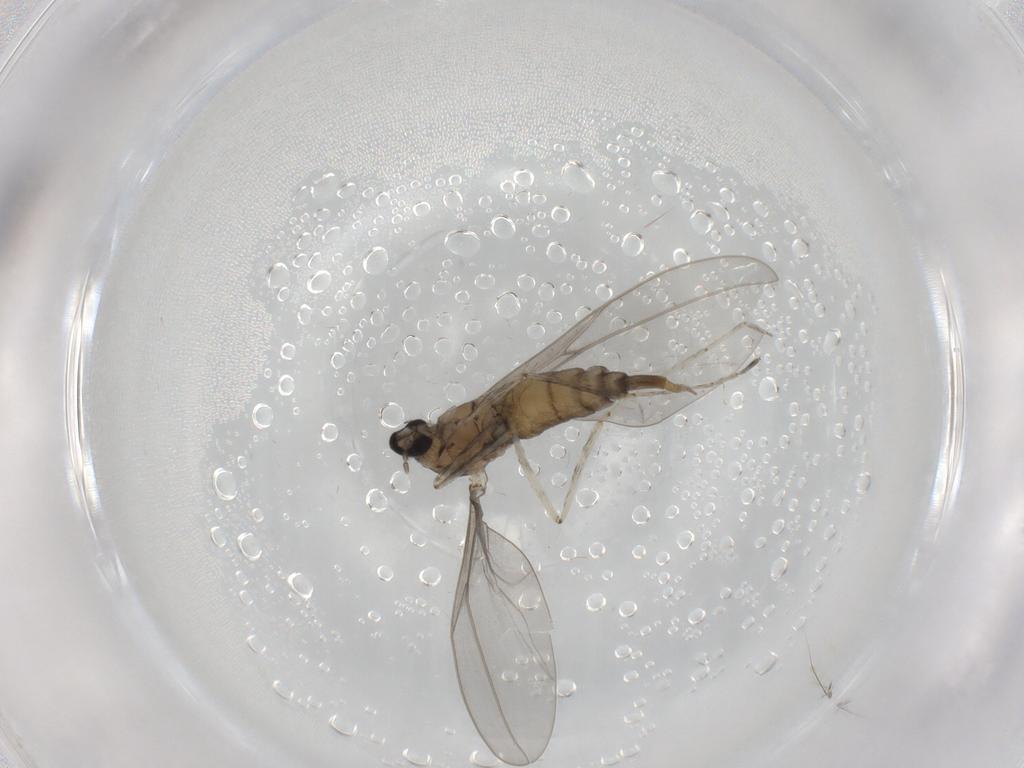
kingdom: Animalia
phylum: Arthropoda
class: Insecta
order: Diptera
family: Cecidomyiidae
